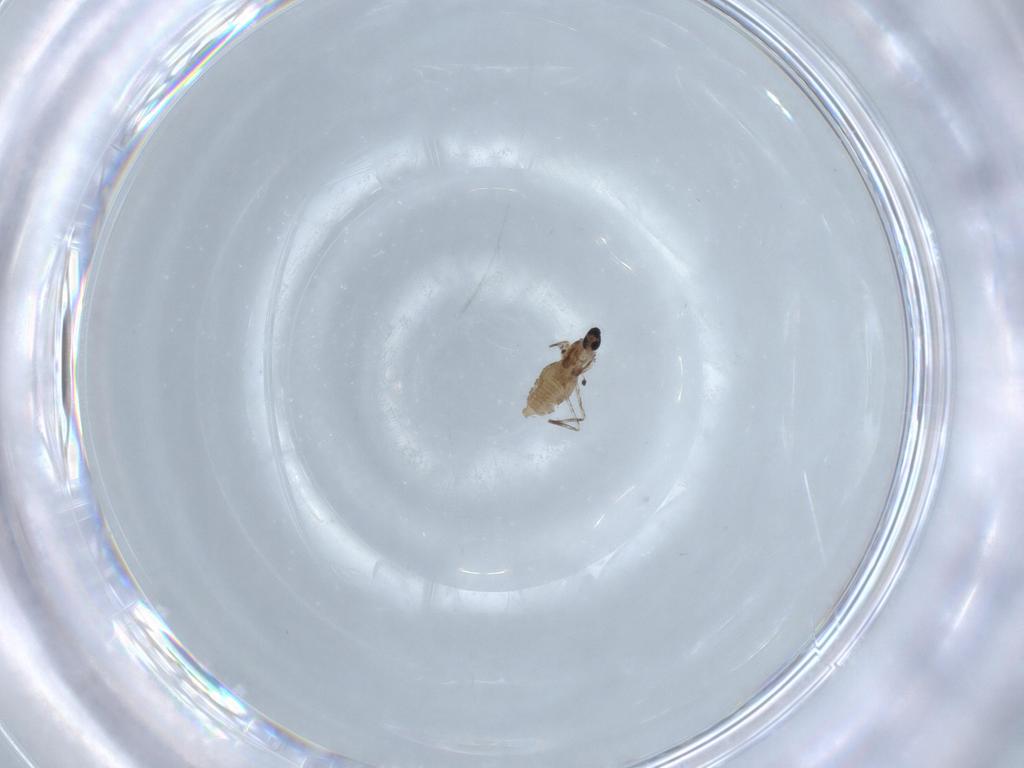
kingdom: Animalia
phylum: Arthropoda
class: Insecta
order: Diptera
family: Cecidomyiidae
